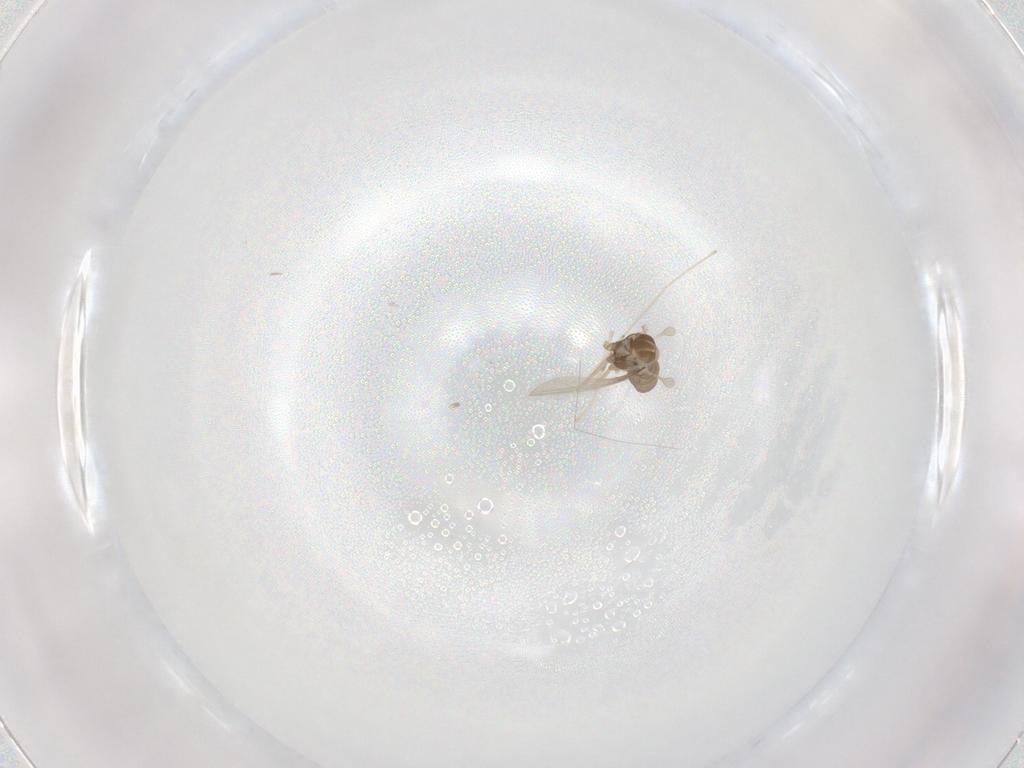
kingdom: Animalia
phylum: Arthropoda
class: Insecta
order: Diptera
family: Cecidomyiidae
